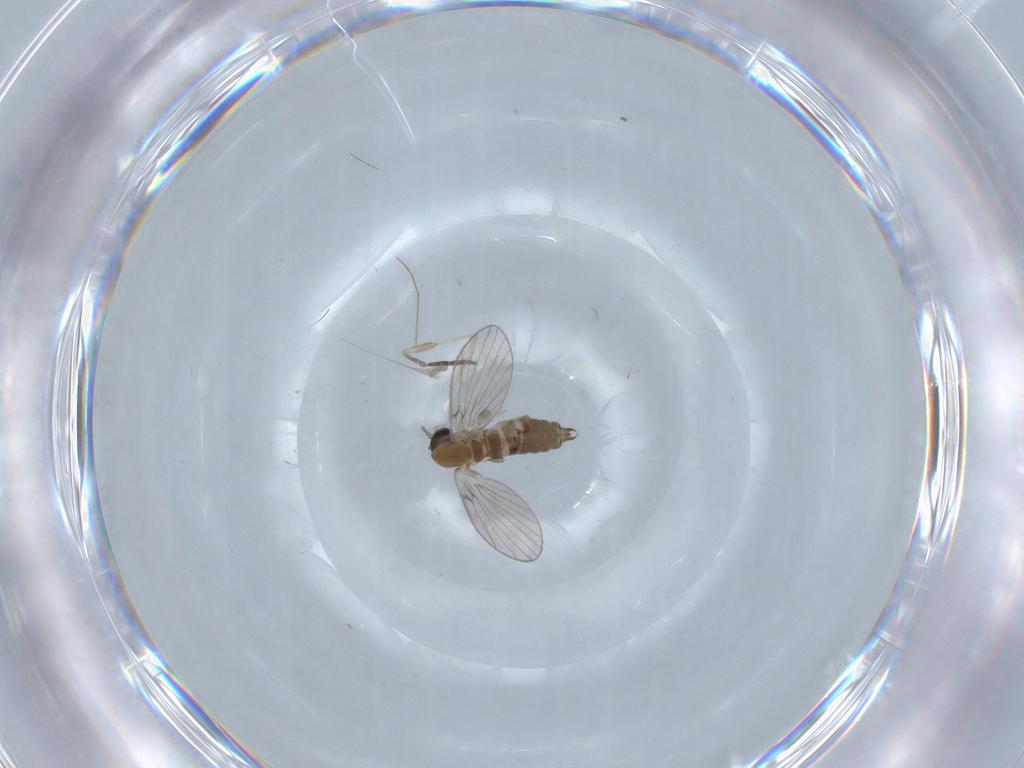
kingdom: Animalia
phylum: Arthropoda
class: Insecta
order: Diptera
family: Psychodidae
